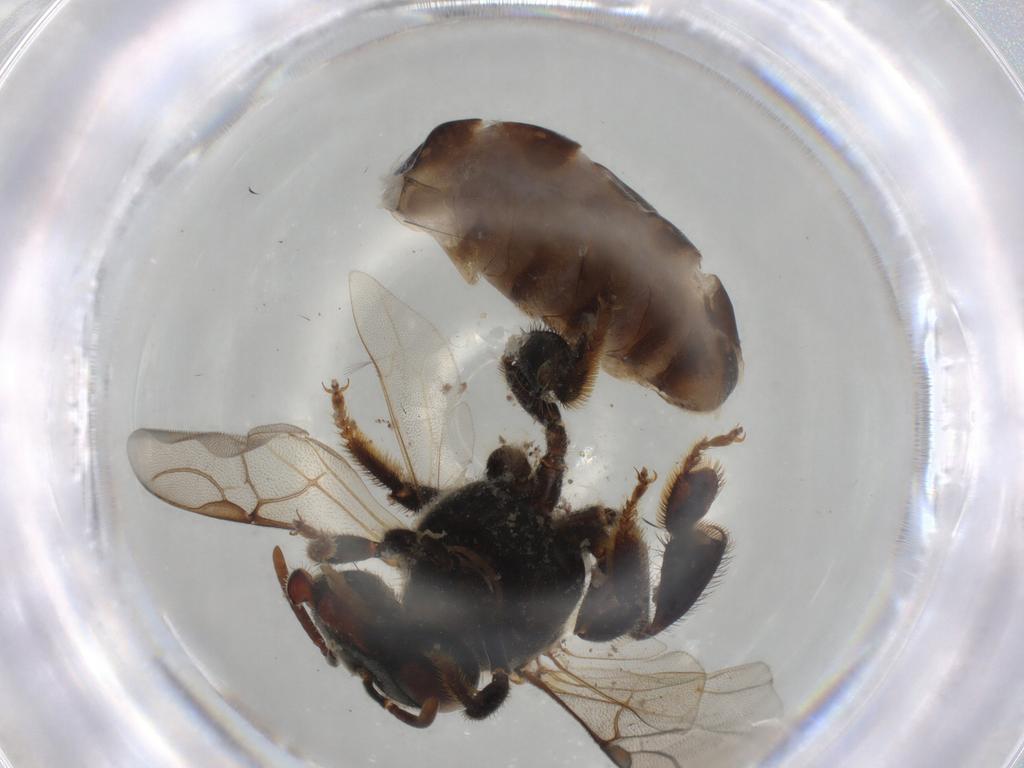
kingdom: Animalia
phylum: Arthropoda
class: Insecta
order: Hymenoptera
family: Apidae
